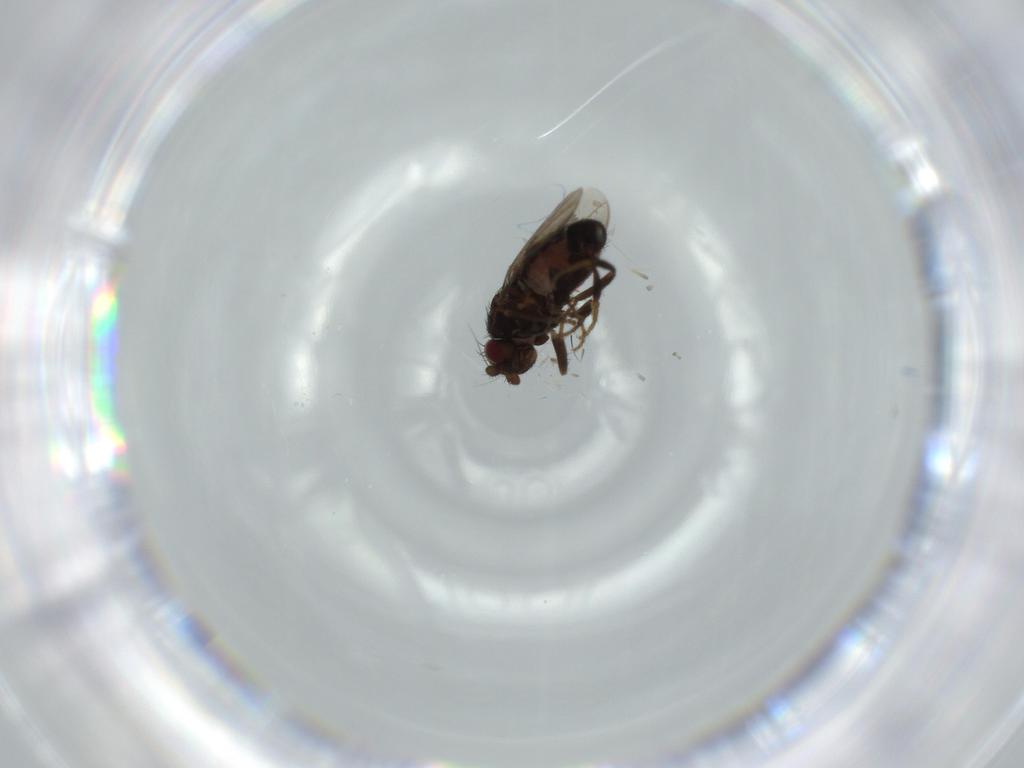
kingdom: Animalia
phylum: Arthropoda
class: Insecta
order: Diptera
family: Sphaeroceridae
